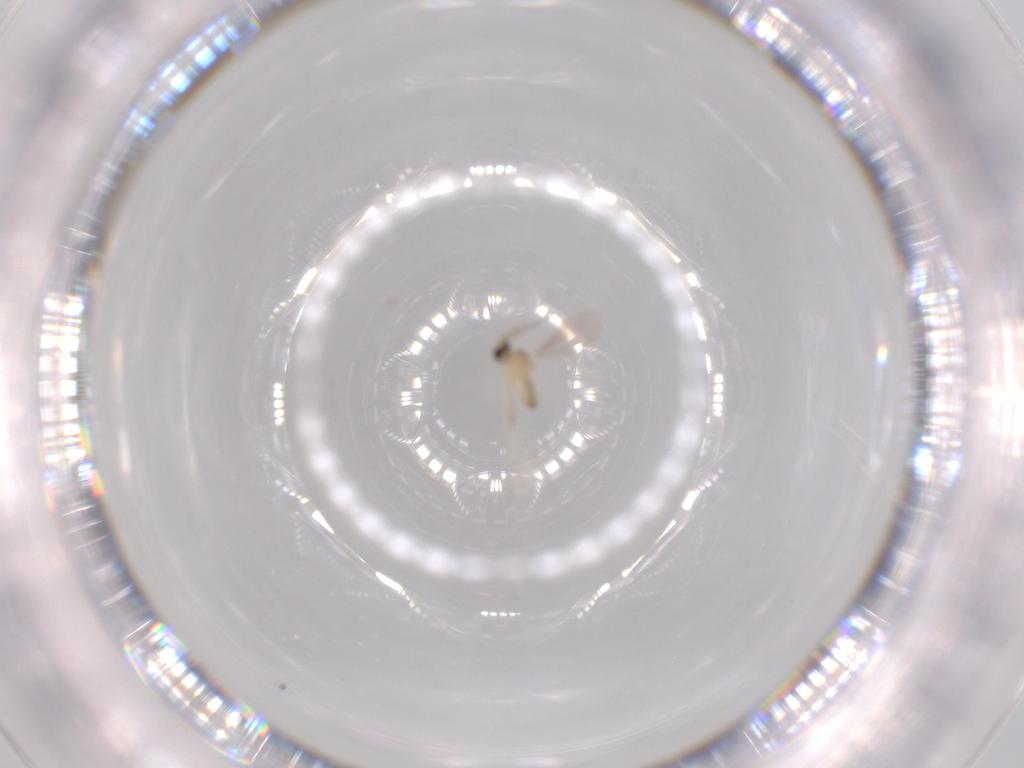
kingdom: Animalia
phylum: Arthropoda
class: Insecta
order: Diptera
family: Cecidomyiidae
